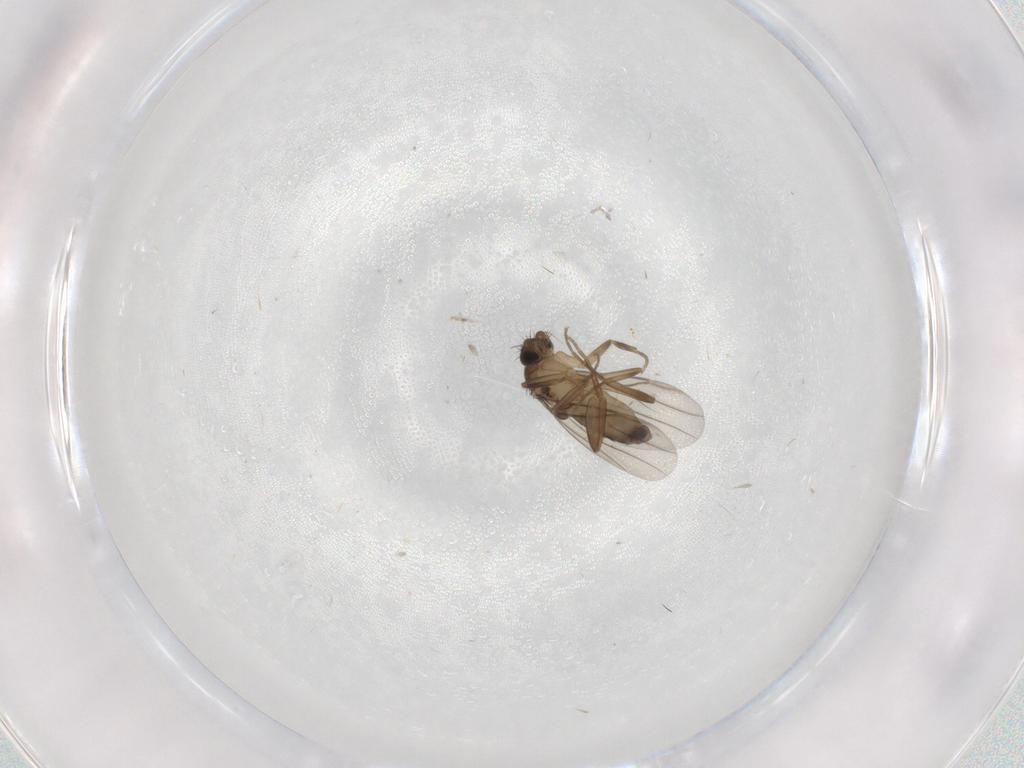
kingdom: Animalia
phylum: Arthropoda
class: Insecta
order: Diptera
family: Phoridae
